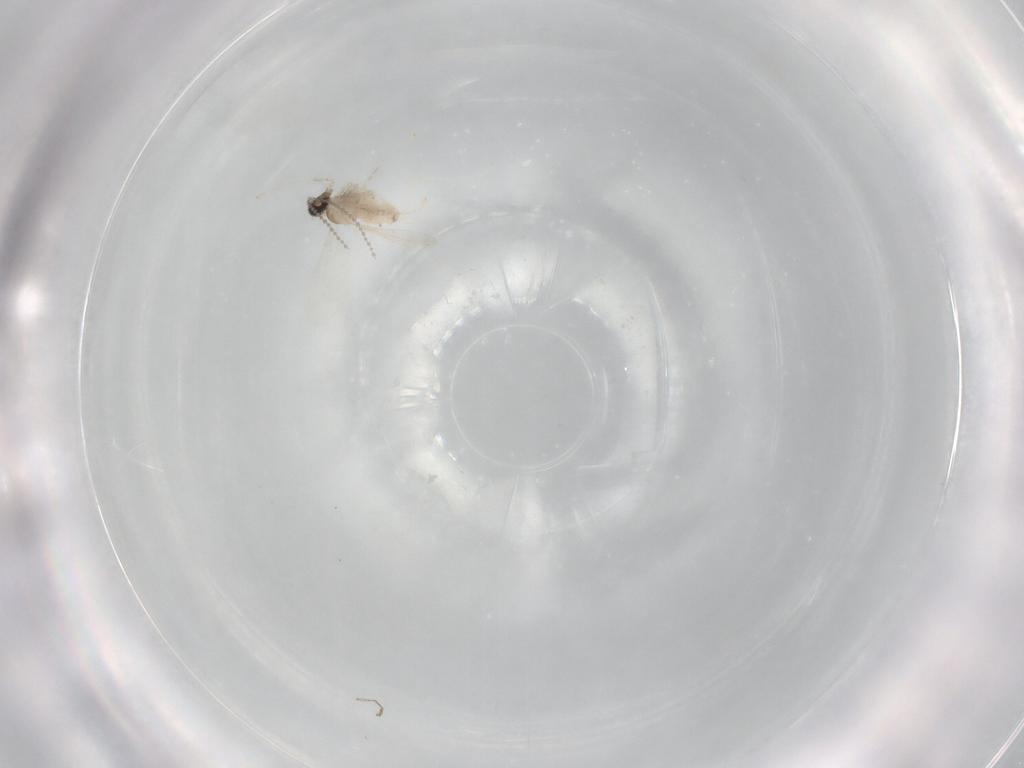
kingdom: Animalia
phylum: Arthropoda
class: Insecta
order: Diptera
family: Cecidomyiidae
